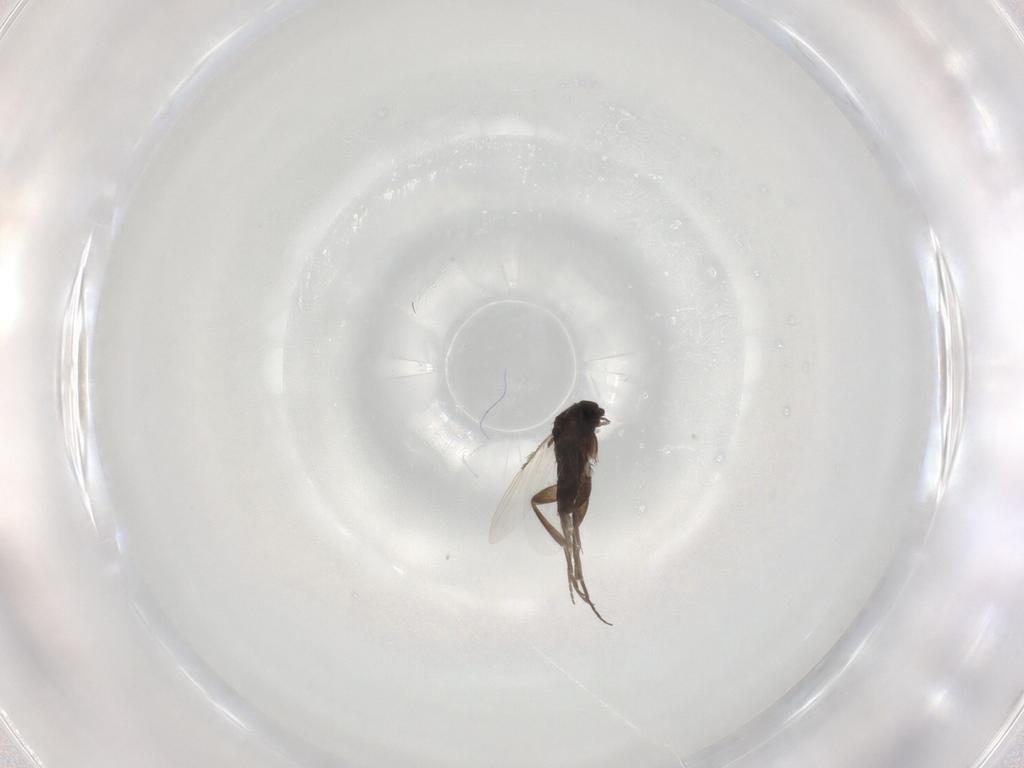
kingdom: Animalia
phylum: Arthropoda
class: Insecta
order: Diptera
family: Phoridae
